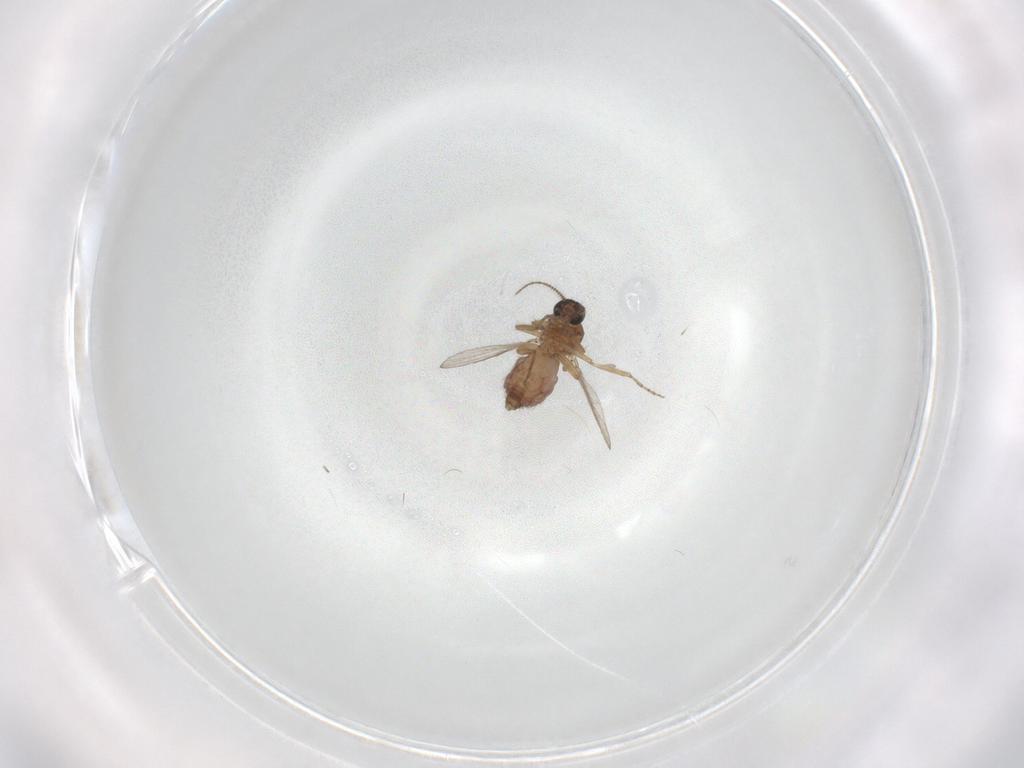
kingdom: Animalia
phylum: Arthropoda
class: Insecta
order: Diptera
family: Ceratopogonidae
